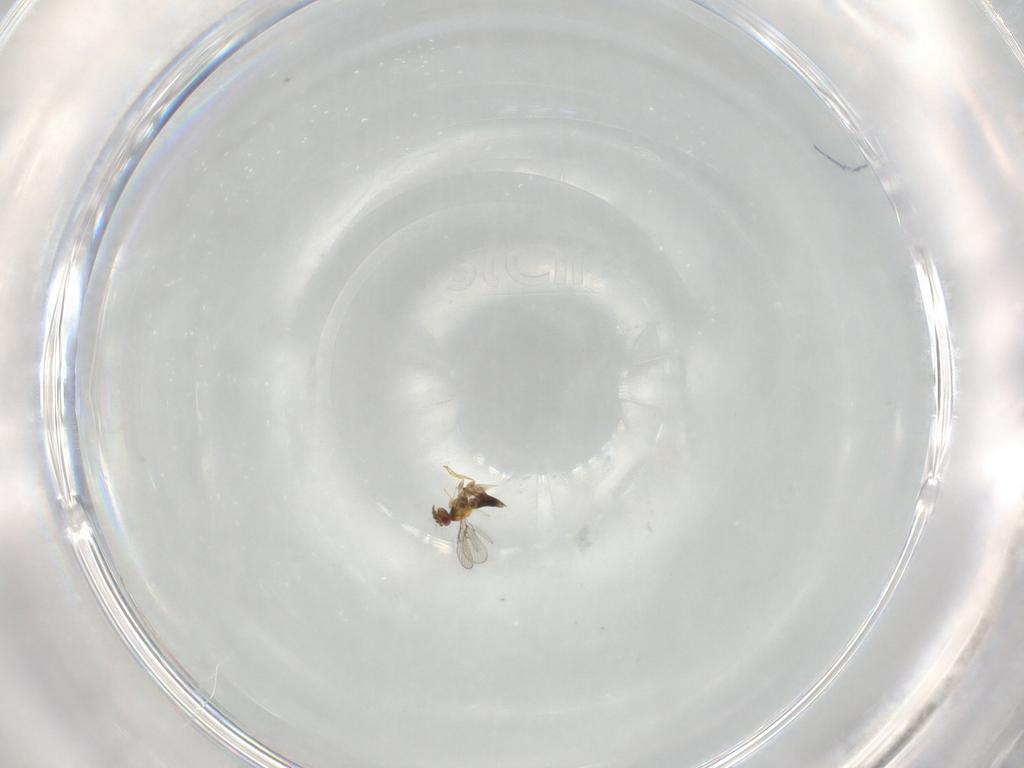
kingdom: Animalia
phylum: Arthropoda
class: Insecta
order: Hymenoptera
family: Trichogrammatidae
